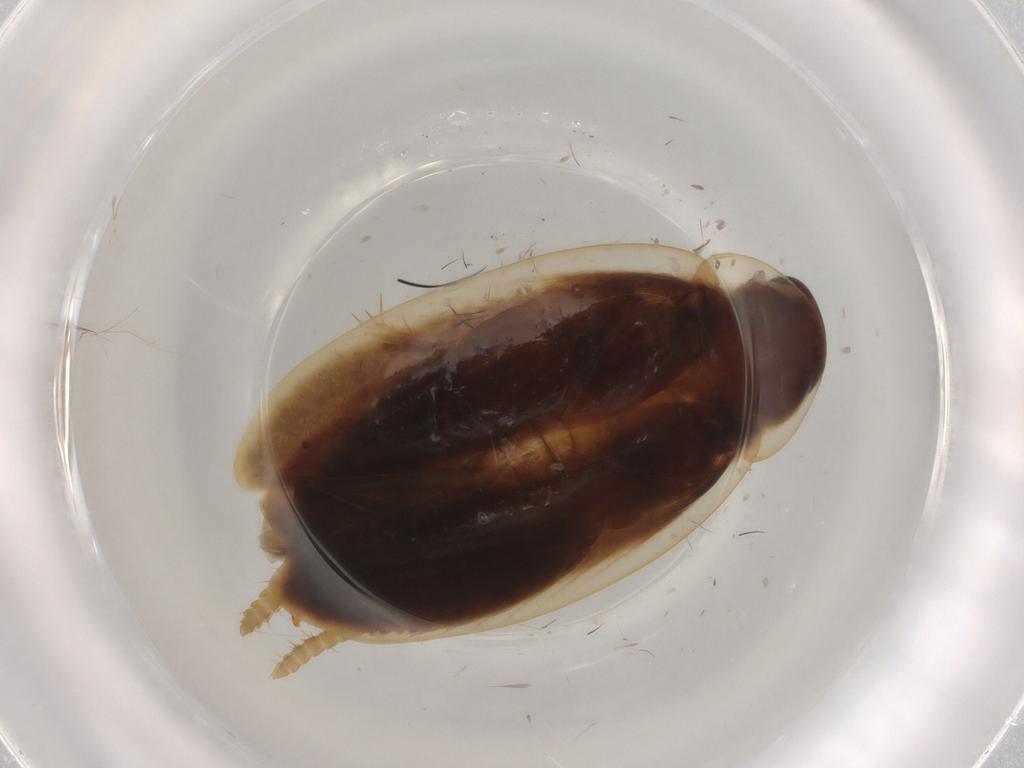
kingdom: Animalia
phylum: Arthropoda
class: Insecta
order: Blattodea
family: Ectobiidae
